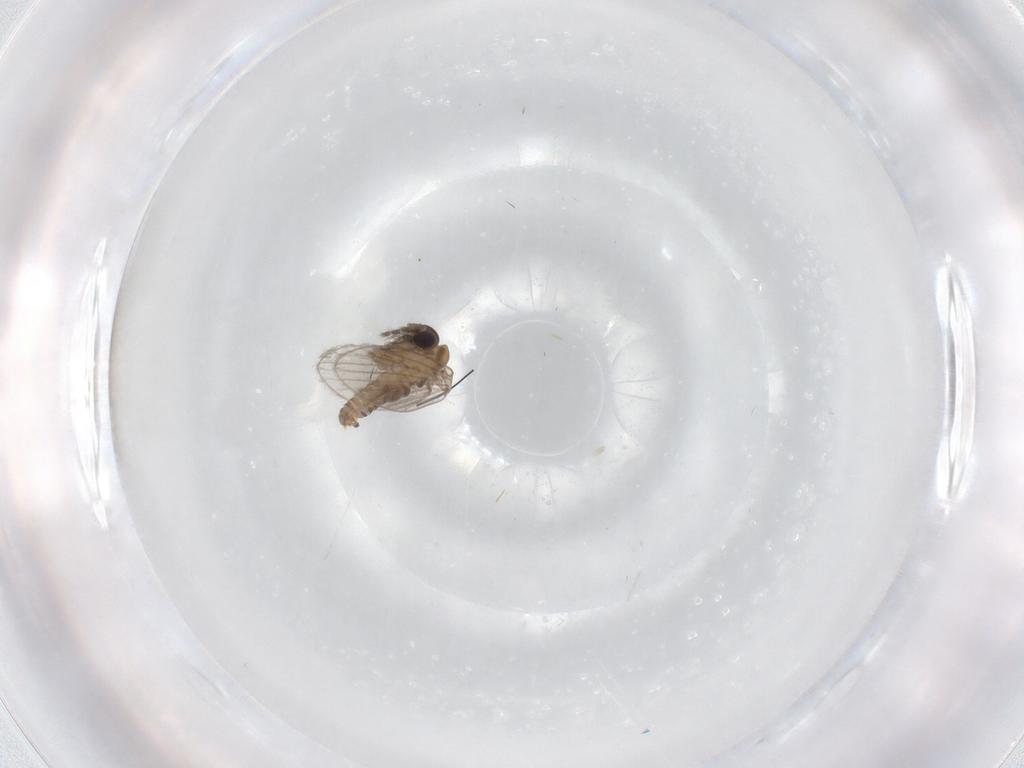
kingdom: Animalia
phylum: Arthropoda
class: Insecta
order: Diptera
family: Psychodidae
